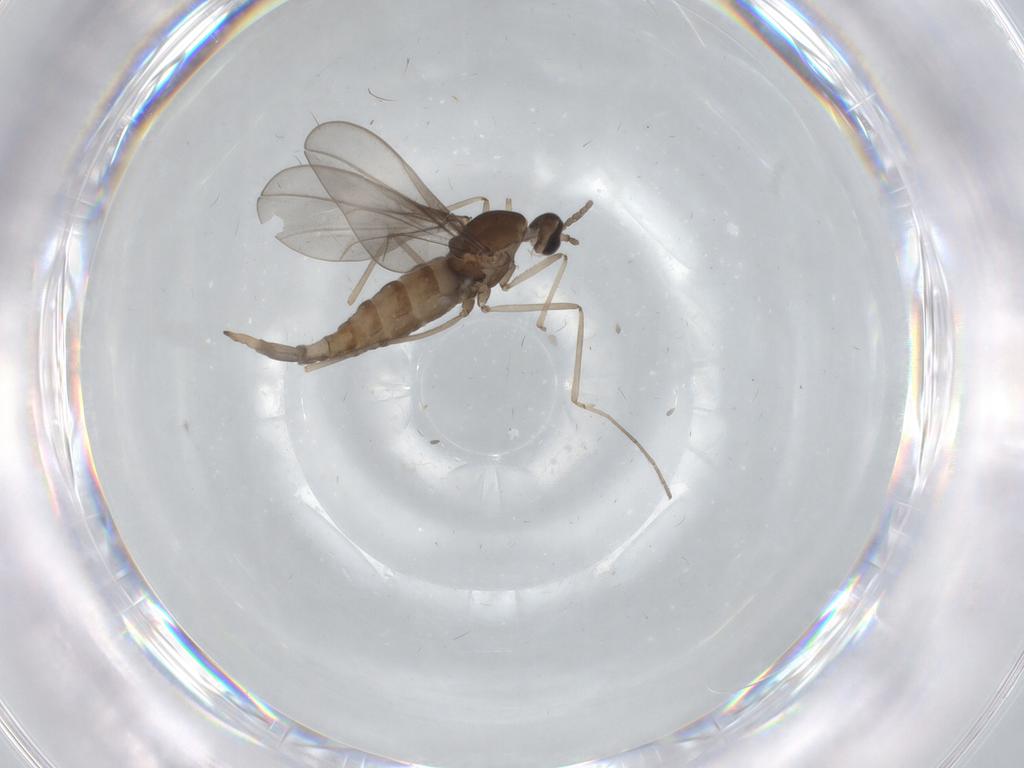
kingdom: Animalia
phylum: Arthropoda
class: Insecta
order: Diptera
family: Cecidomyiidae
